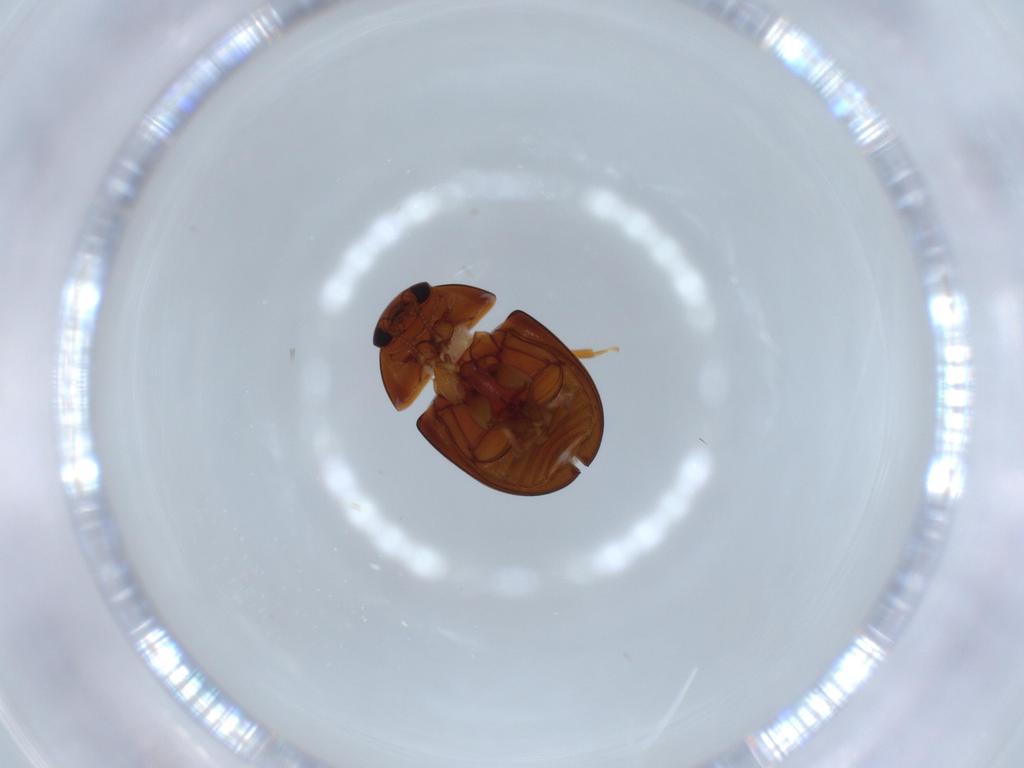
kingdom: Animalia
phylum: Arthropoda
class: Insecta
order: Coleoptera
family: Phalacridae
